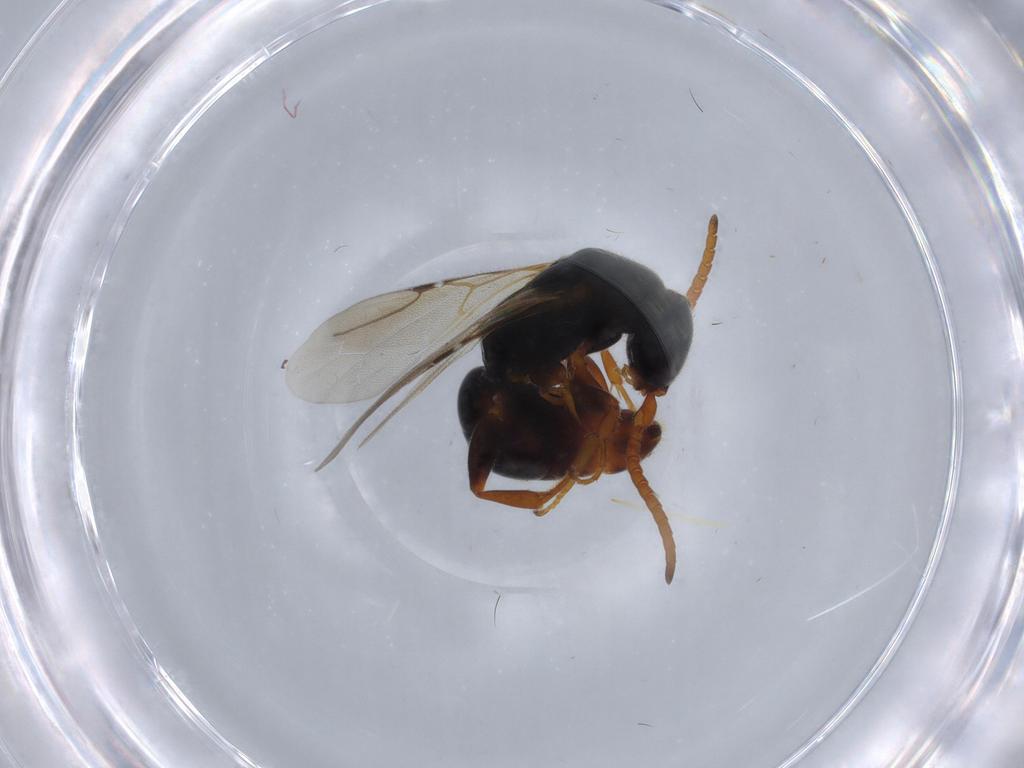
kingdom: Animalia
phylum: Arthropoda
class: Insecta
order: Hymenoptera
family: Bethylidae
